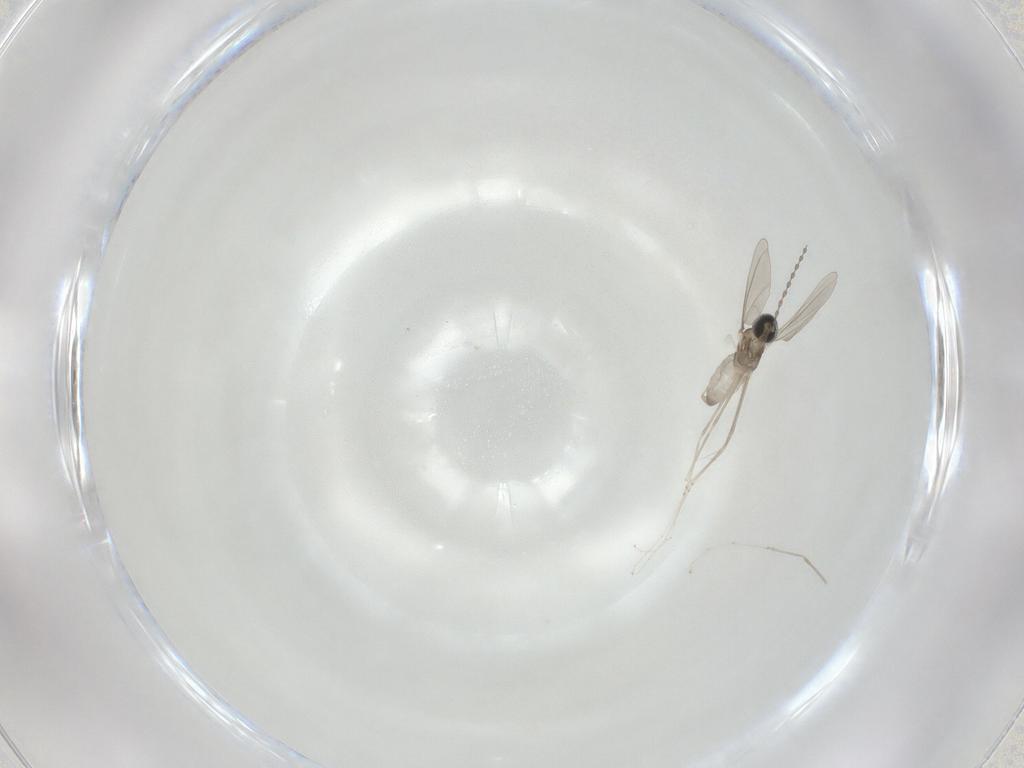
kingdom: Animalia
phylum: Arthropoda
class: Insecta
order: Diptera
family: Cecidomyiidae
